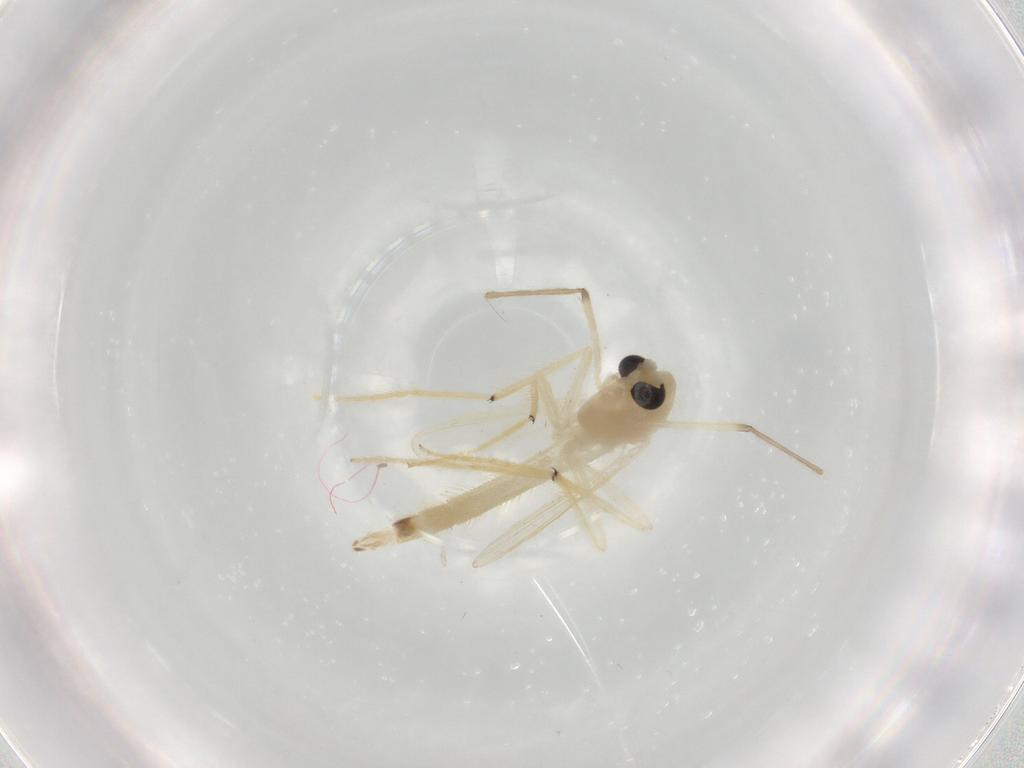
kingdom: Animalia
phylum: Arthropoda
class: Insecta
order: Diptera
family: Chironomidae
